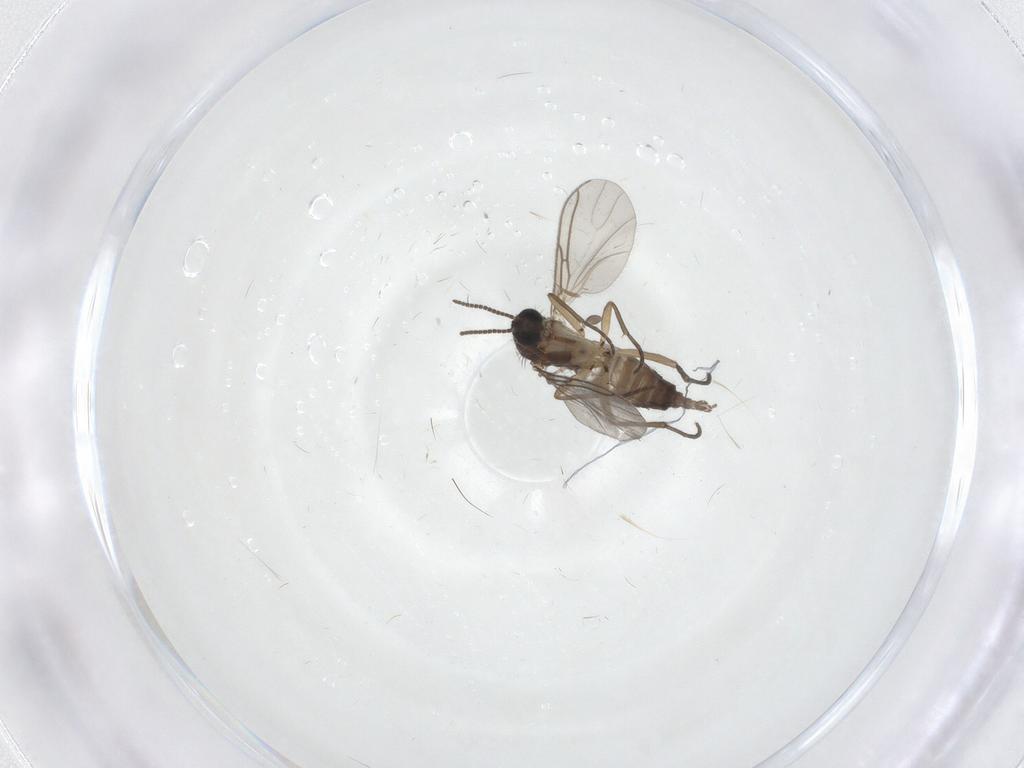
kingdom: Animalia
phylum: Arthropoda
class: Insecta
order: Diptera
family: Sciaridae
